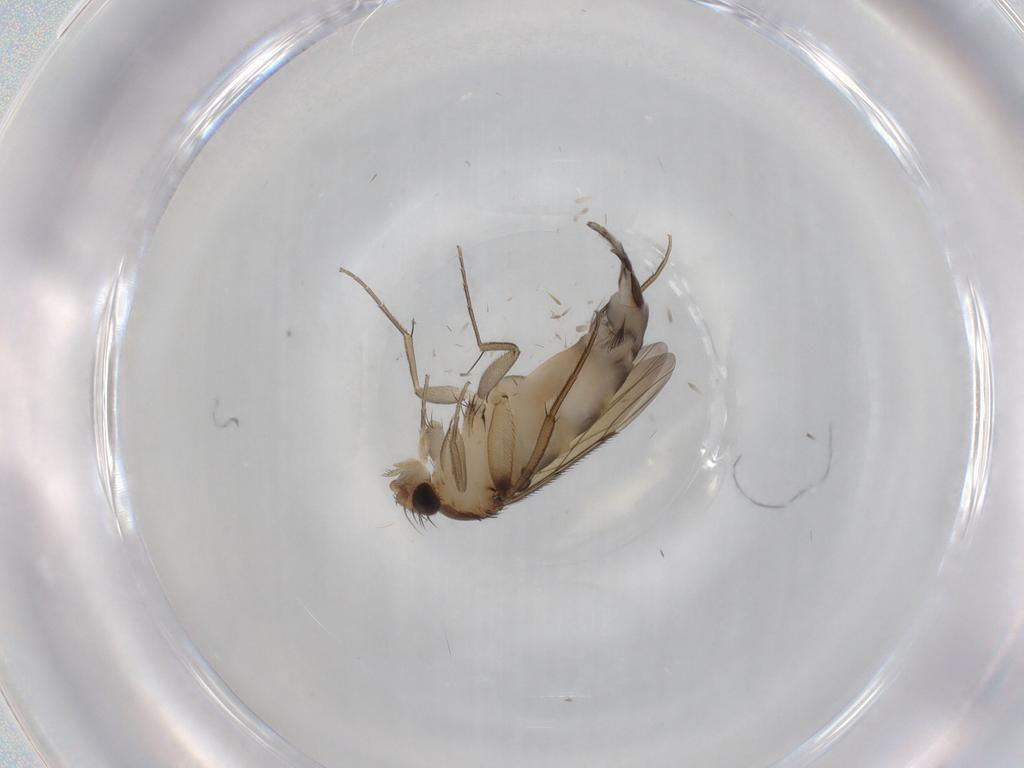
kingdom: Animalia
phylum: Arthropoda
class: Insecta
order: Diptera
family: Phoridae
